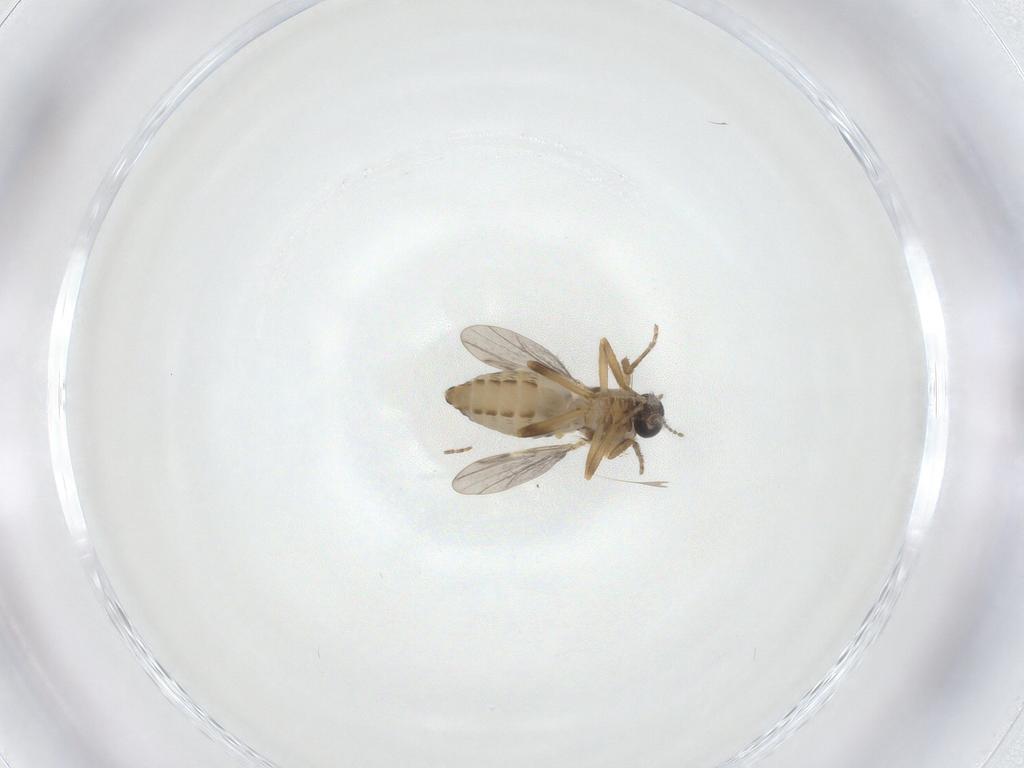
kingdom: Animalia
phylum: Arthropoda
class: Insecta
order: Diptera
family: Ceratopogonidae
